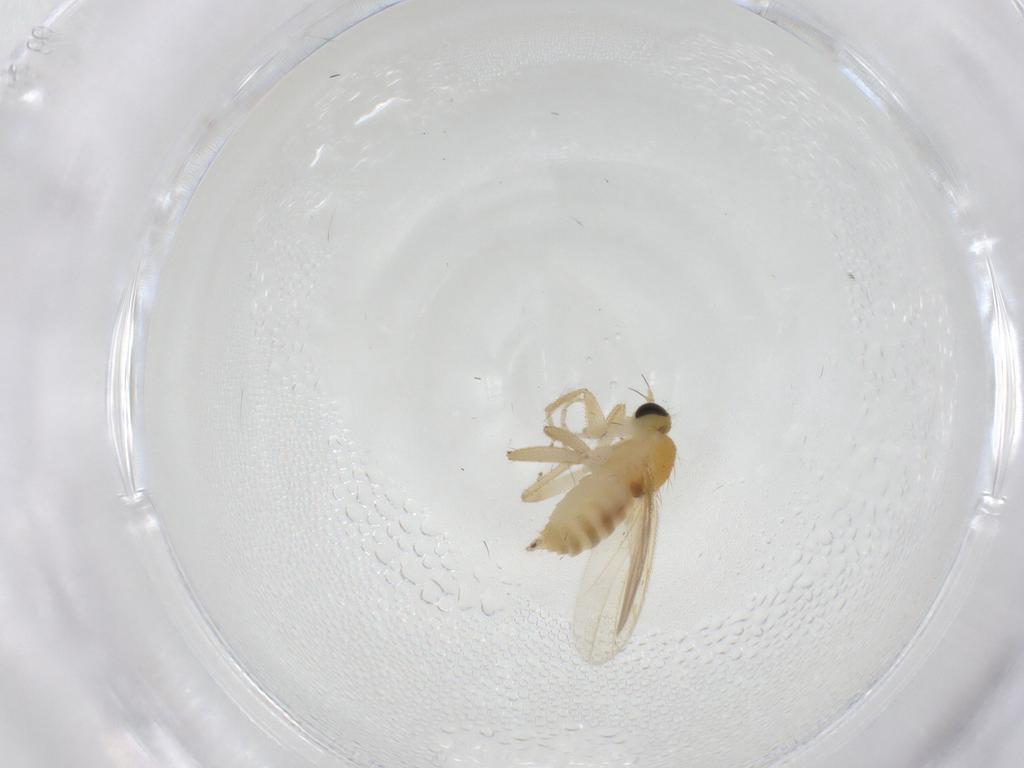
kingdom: Animalia
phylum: Arthropoda
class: Insecta
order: Diptera
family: Hybotidae
